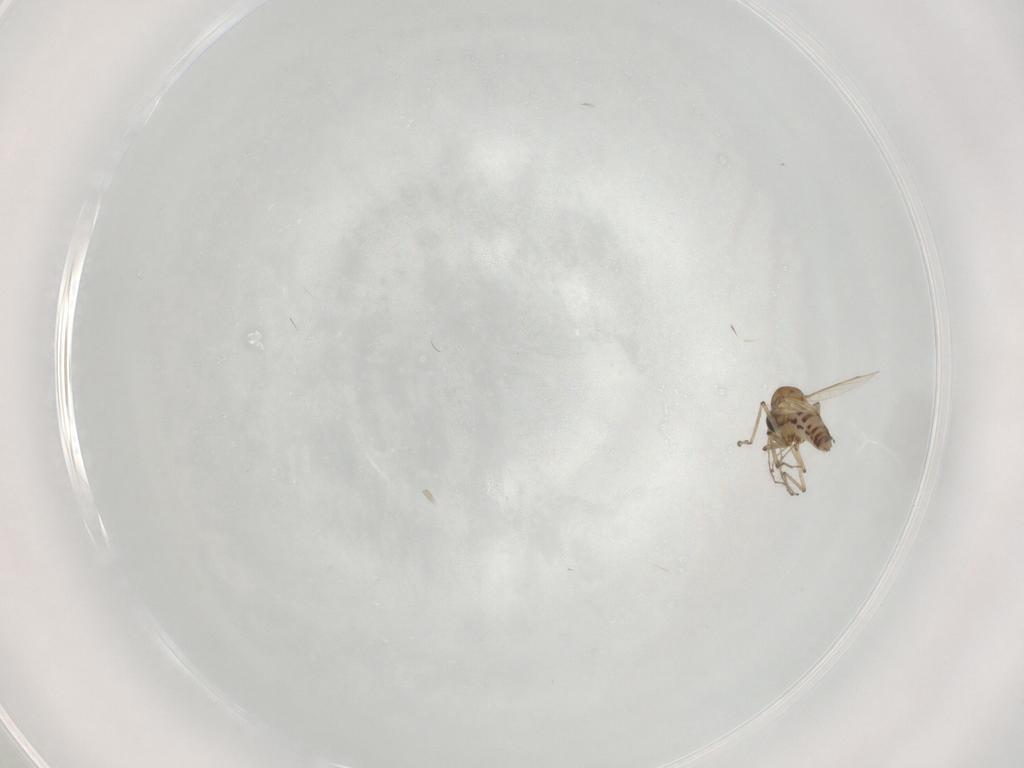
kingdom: Animalia
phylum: Arthropoda
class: Insecta
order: Diptera
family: Ceratopogonidae
